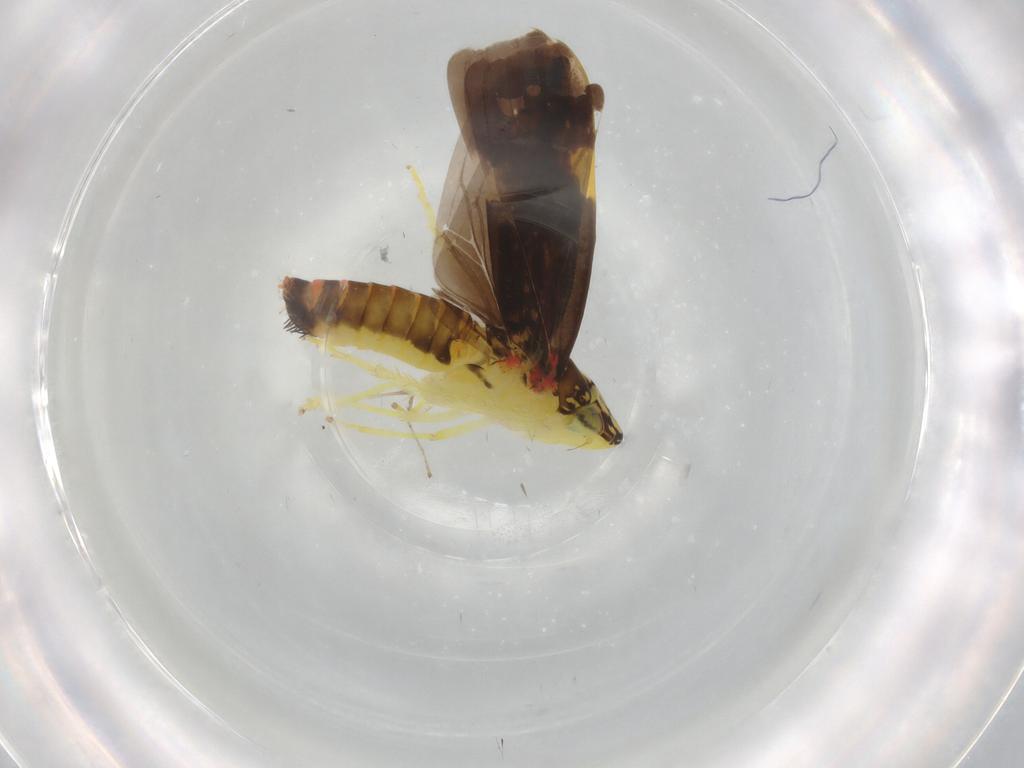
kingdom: Animalia
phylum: Arthropoda
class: Insecta
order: Hemiptera
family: Cicadellidae
